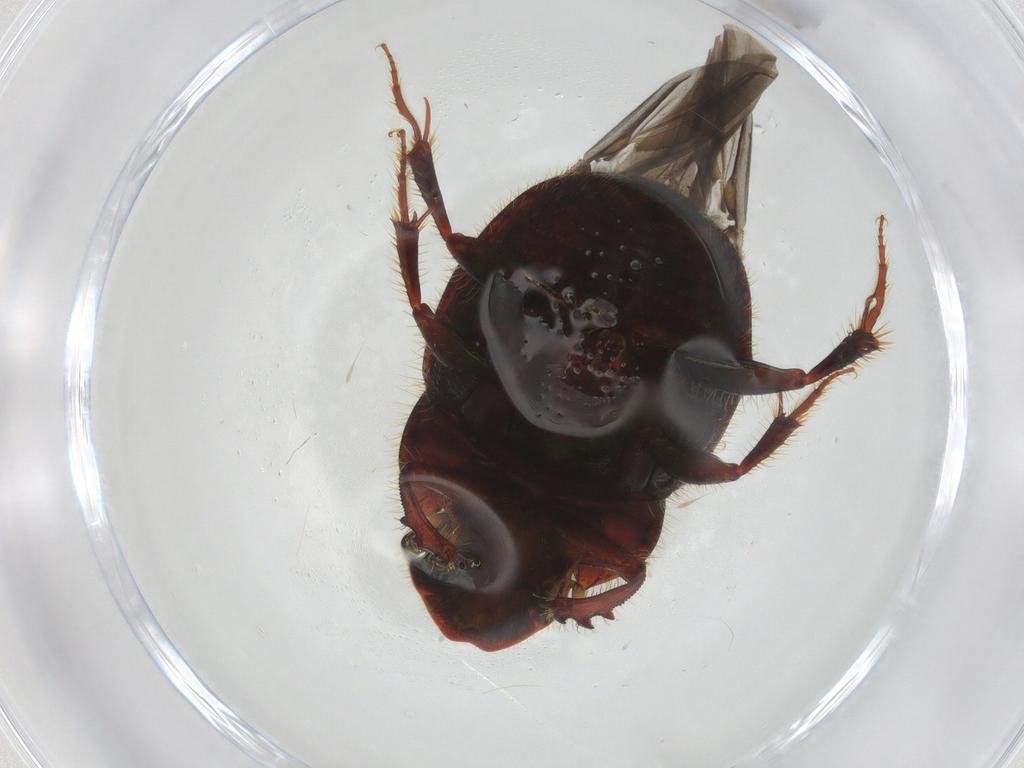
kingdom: Animalia
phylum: Arthropoda
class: Insecta
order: Coleoptera
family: Scarabaeidae
